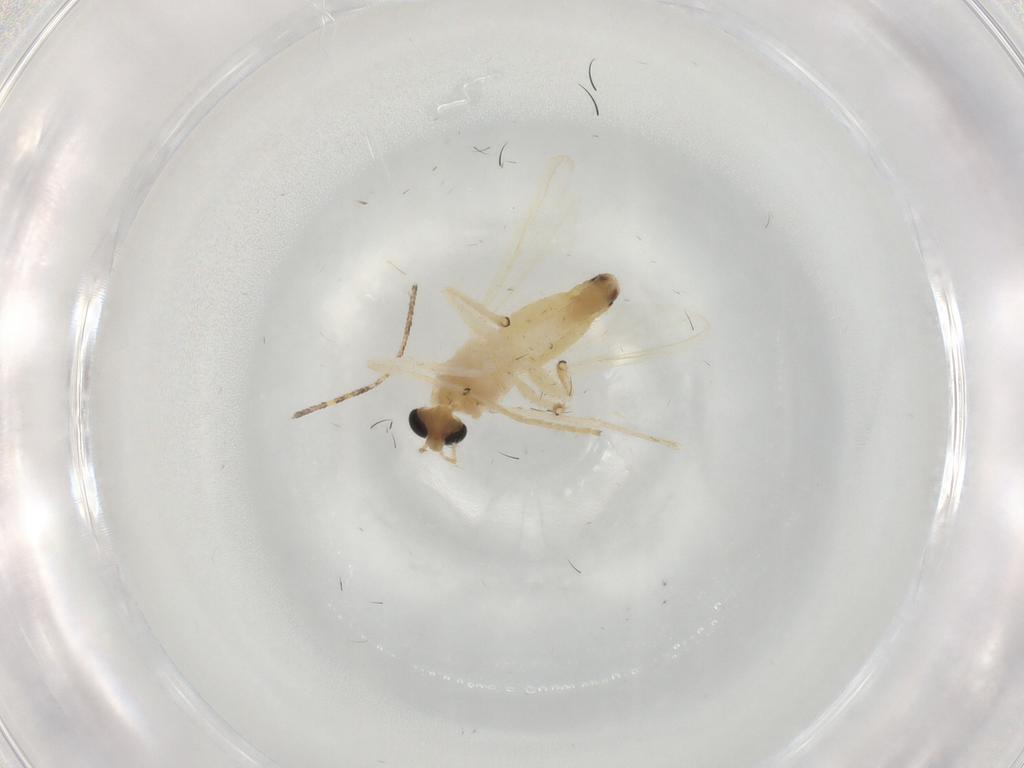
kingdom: Animalia
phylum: Arthropoda
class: Insecta
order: Diptera
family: Chironomidae
